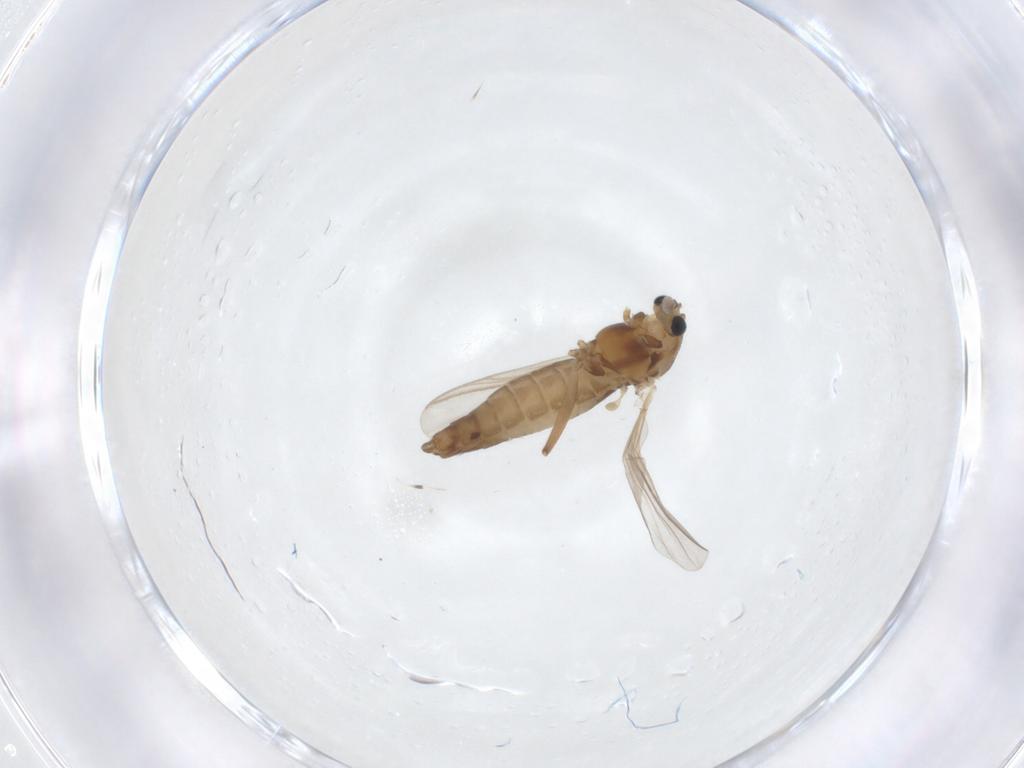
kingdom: Animalia
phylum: Arthropoda
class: Insecta
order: Diptera
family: Chironomidae
